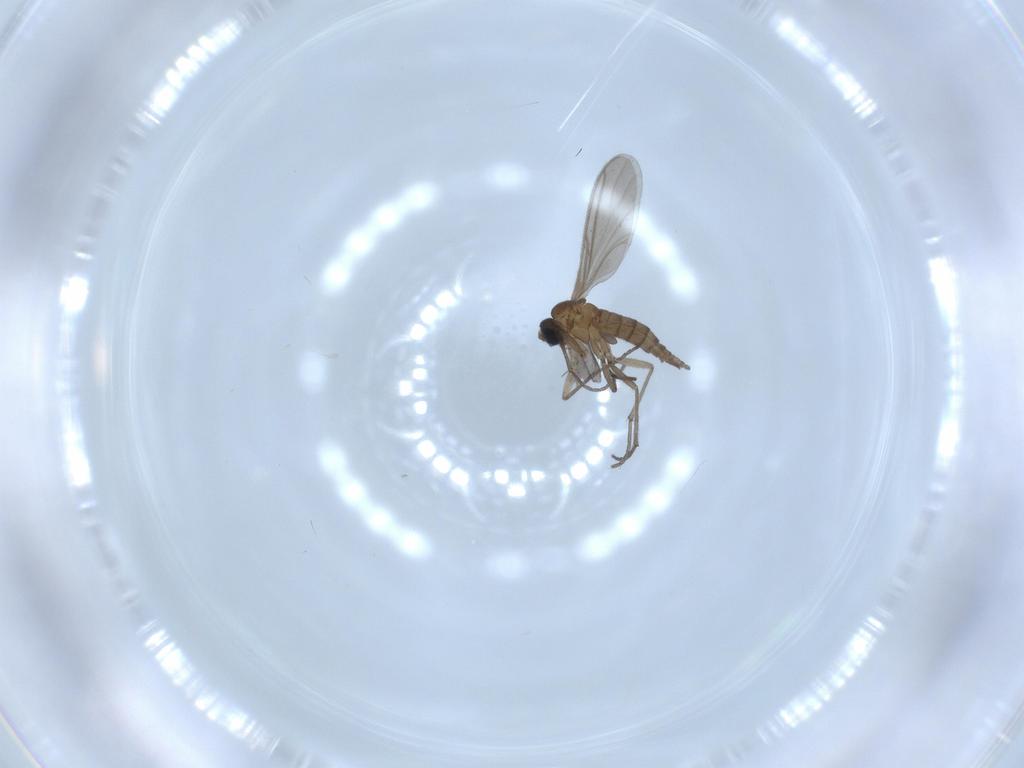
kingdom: Animalia
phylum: Arthropoda
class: Insecta
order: Diptera
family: Sciaridae
